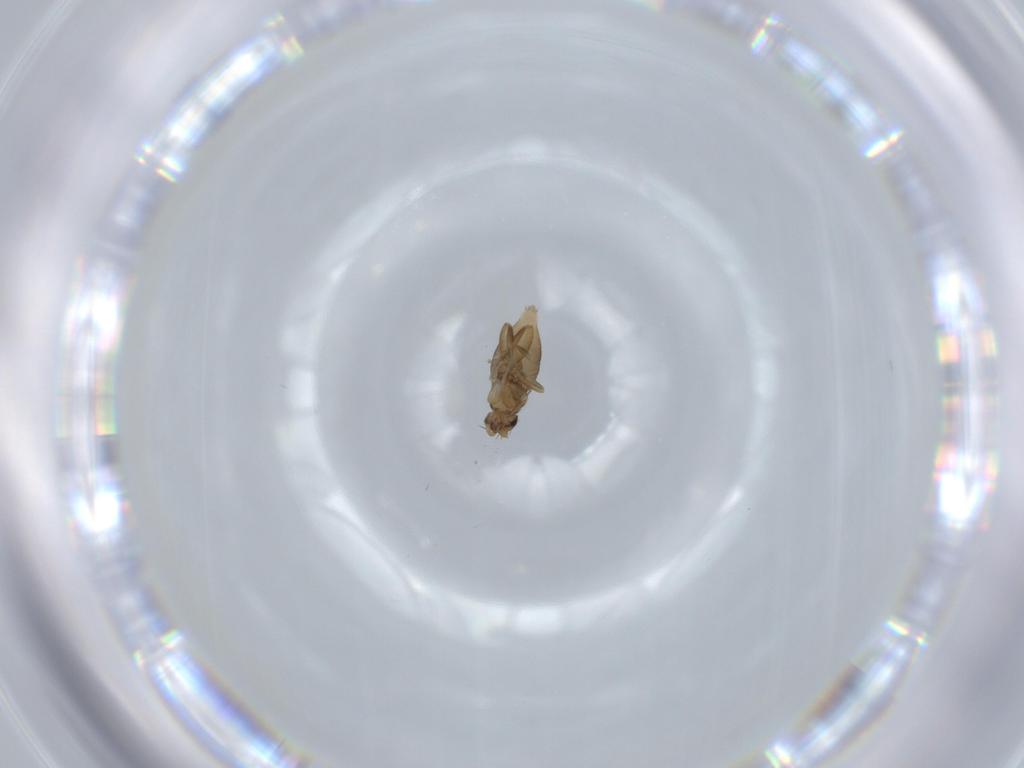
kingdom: Animalia
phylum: Arthropoda
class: Insecta
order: Diptera
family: Phoridae
